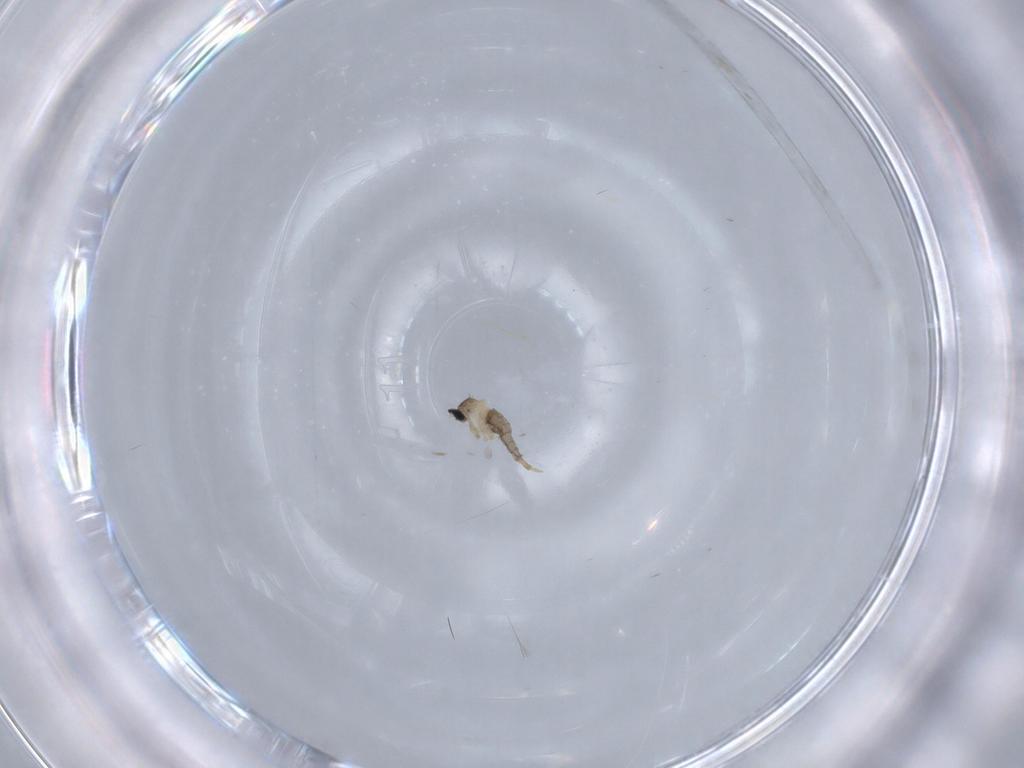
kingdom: Animalia
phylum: Arthropoda
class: Insecta
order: Diptera
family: Cecidomyiidae
